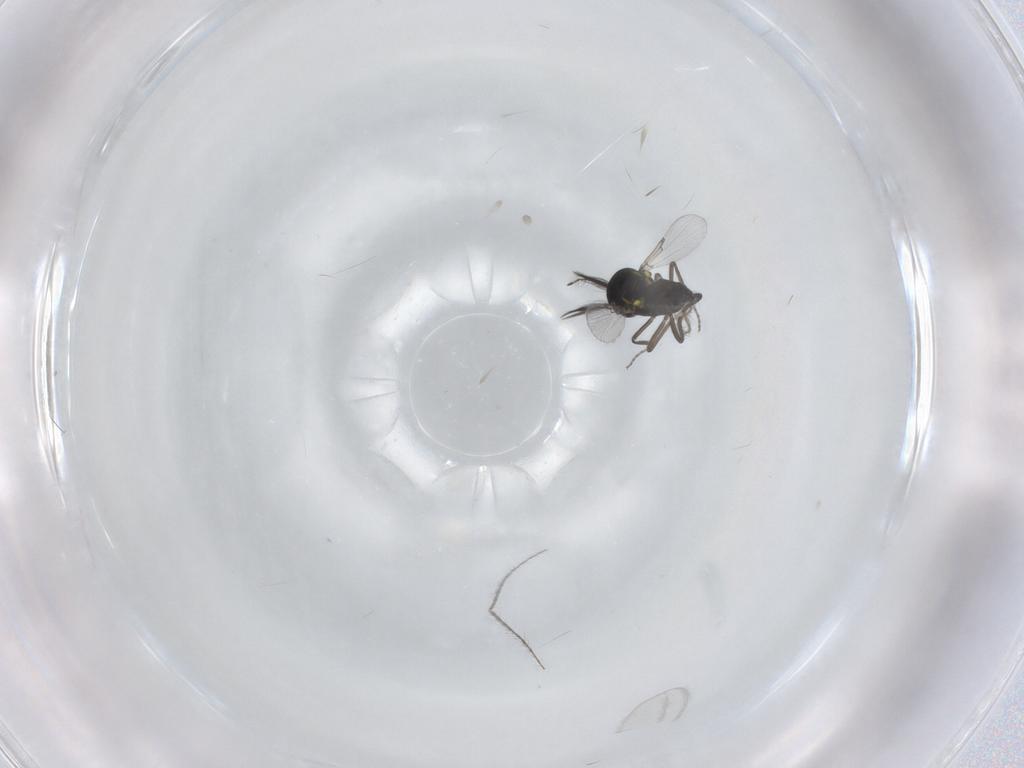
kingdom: Animalia
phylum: Arthropoda
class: Insecta
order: Diptera
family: Ceratopogonidae
